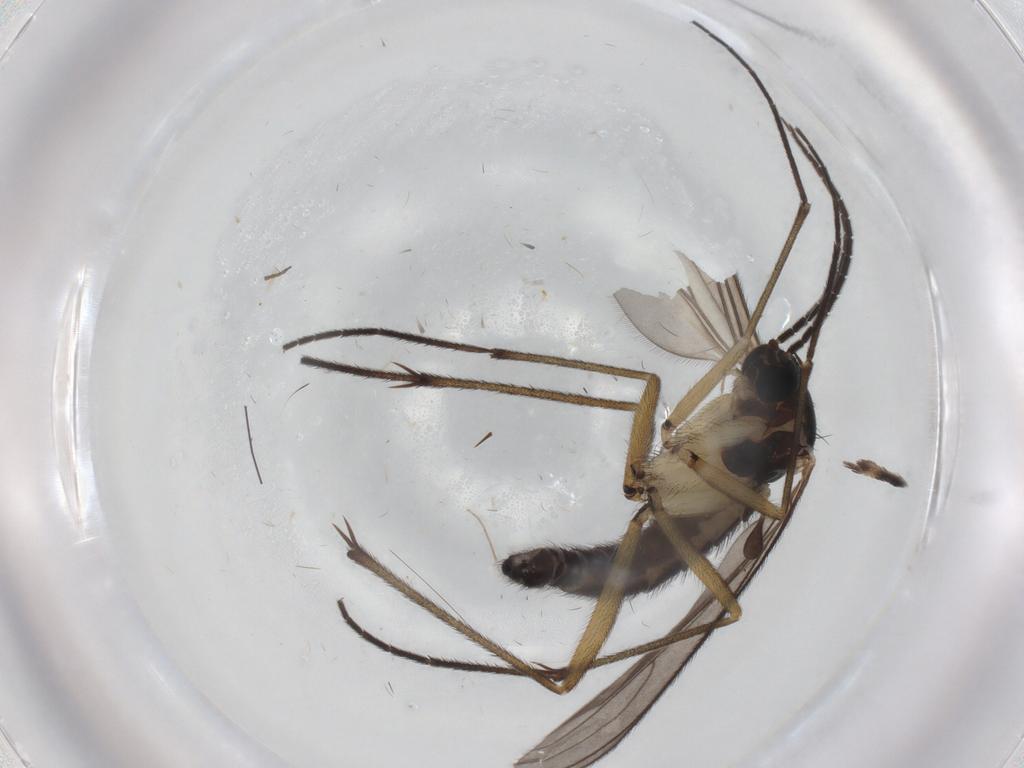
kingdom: Animalia
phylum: Arthropoda
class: Insecta
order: Diptera
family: Sciaridae
